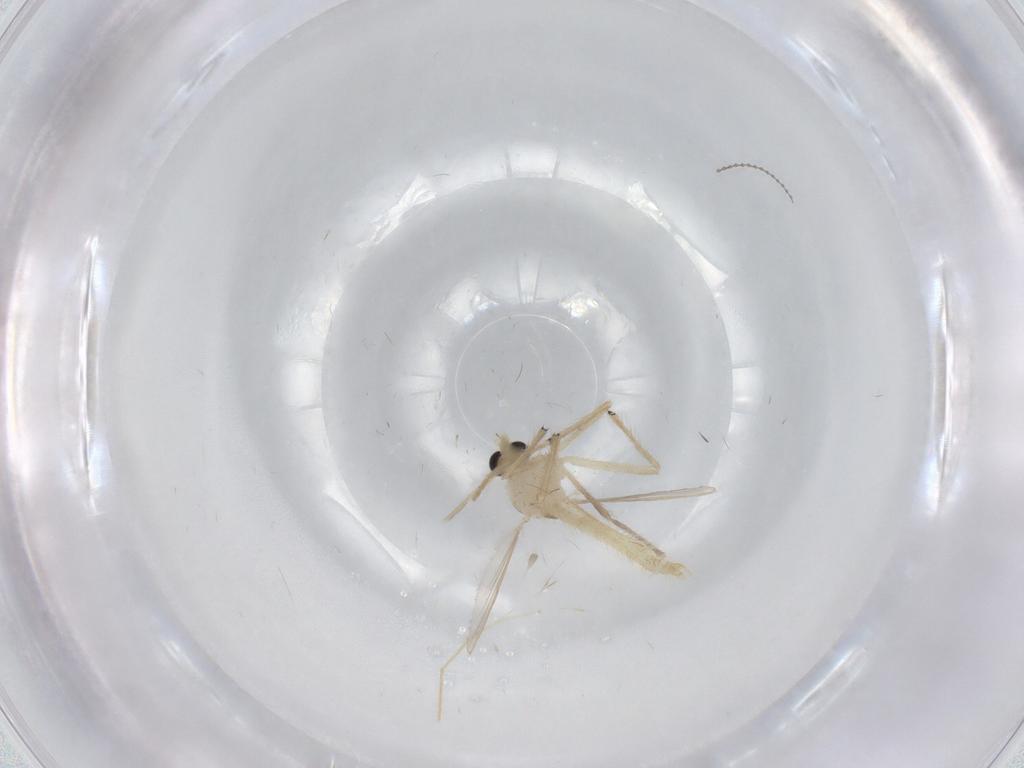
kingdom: Animalia
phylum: Arthropoda
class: Insecta
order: Diptera
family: Chironomidae
